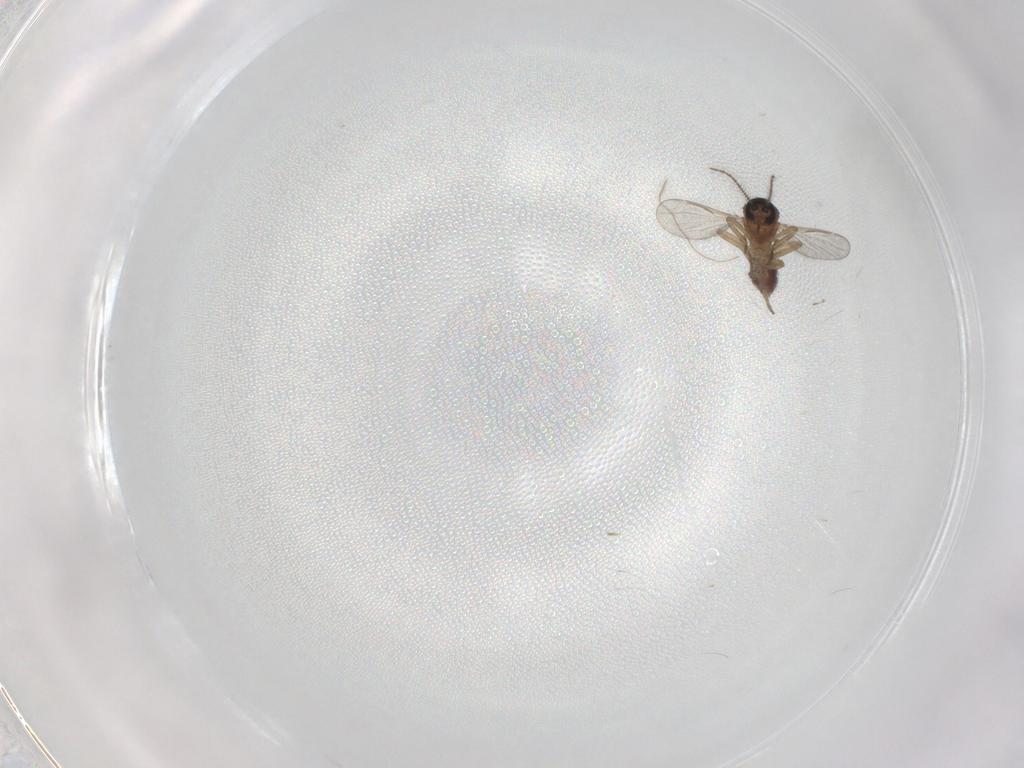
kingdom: Animalia
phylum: Arthropoda
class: Insecta
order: Diptera
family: Chironomidae
